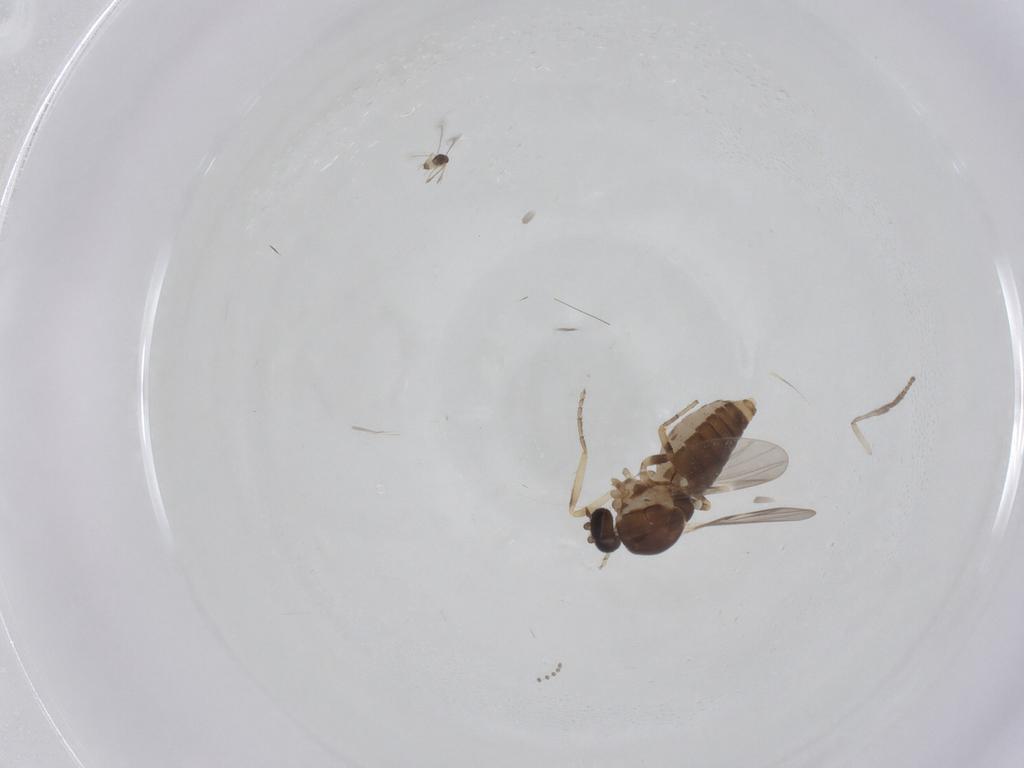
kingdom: Animalia
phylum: Arthropoda
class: Insecta
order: Diptera
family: Ceratopogonidae
